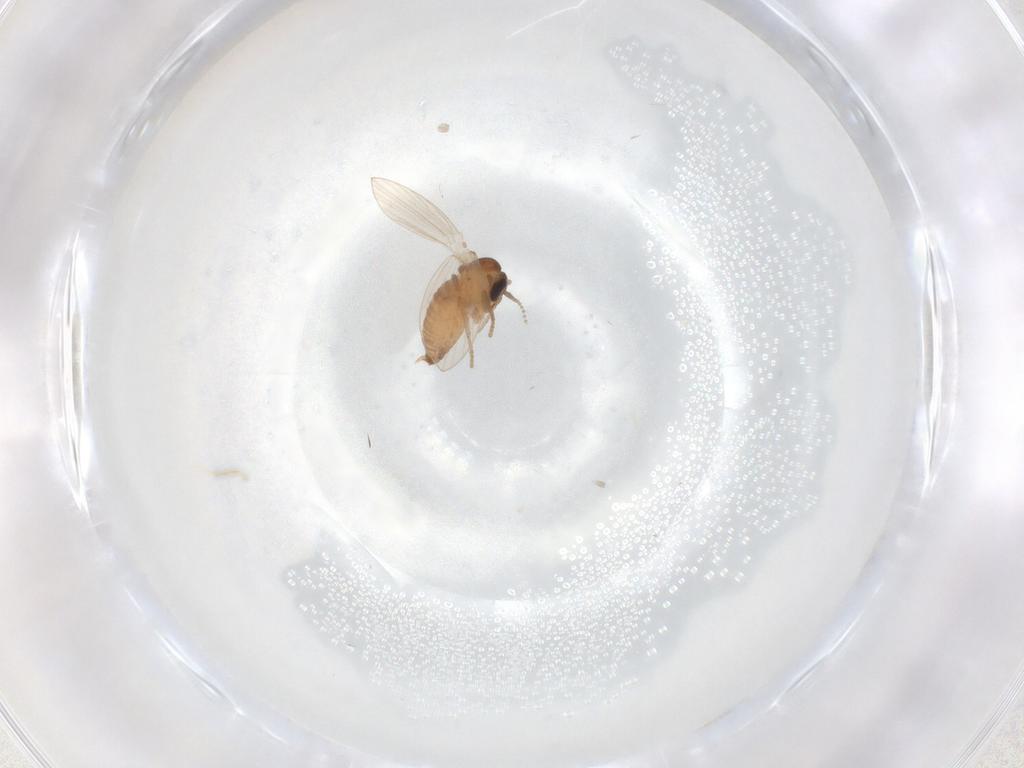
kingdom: Animalia
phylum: Arthropoda
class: Insecta
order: Diptera
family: Psychodidae
